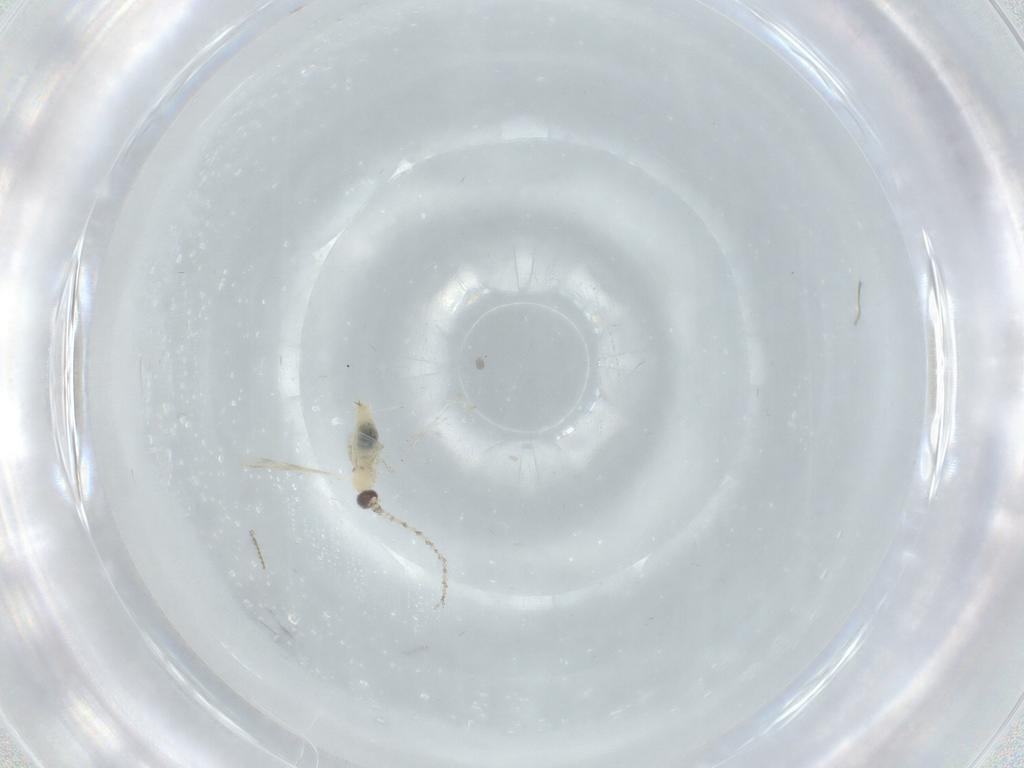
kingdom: Animalia
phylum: Arthropoda
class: Insecta
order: Diptera
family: Cecidomyiidae
